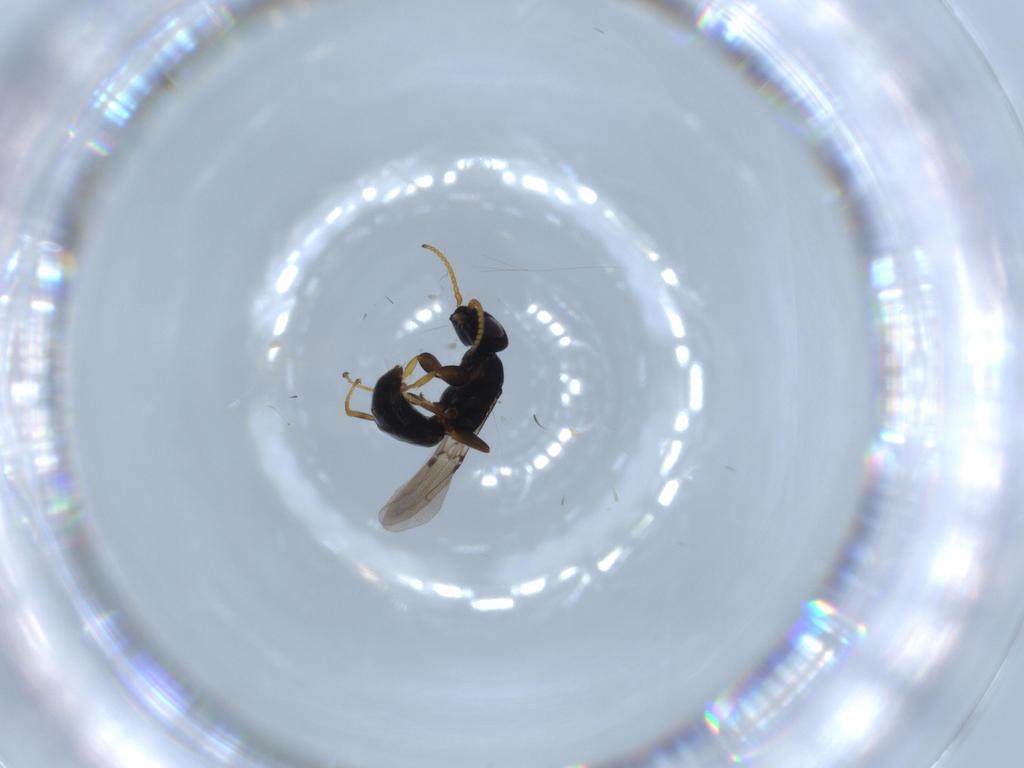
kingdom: Animalia
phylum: Arthropoda
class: Insecta
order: Hymenoptera
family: Bethylidae
